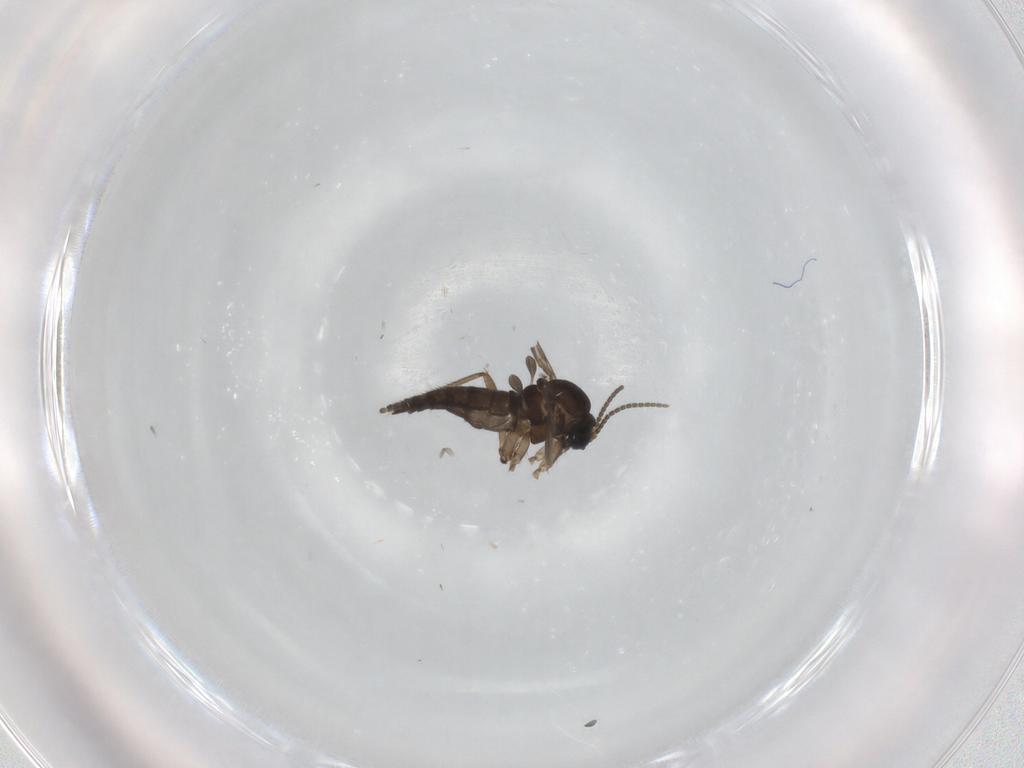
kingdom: Animalia
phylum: Arthropoda
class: Insecta
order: Diptera
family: Sciaridae
